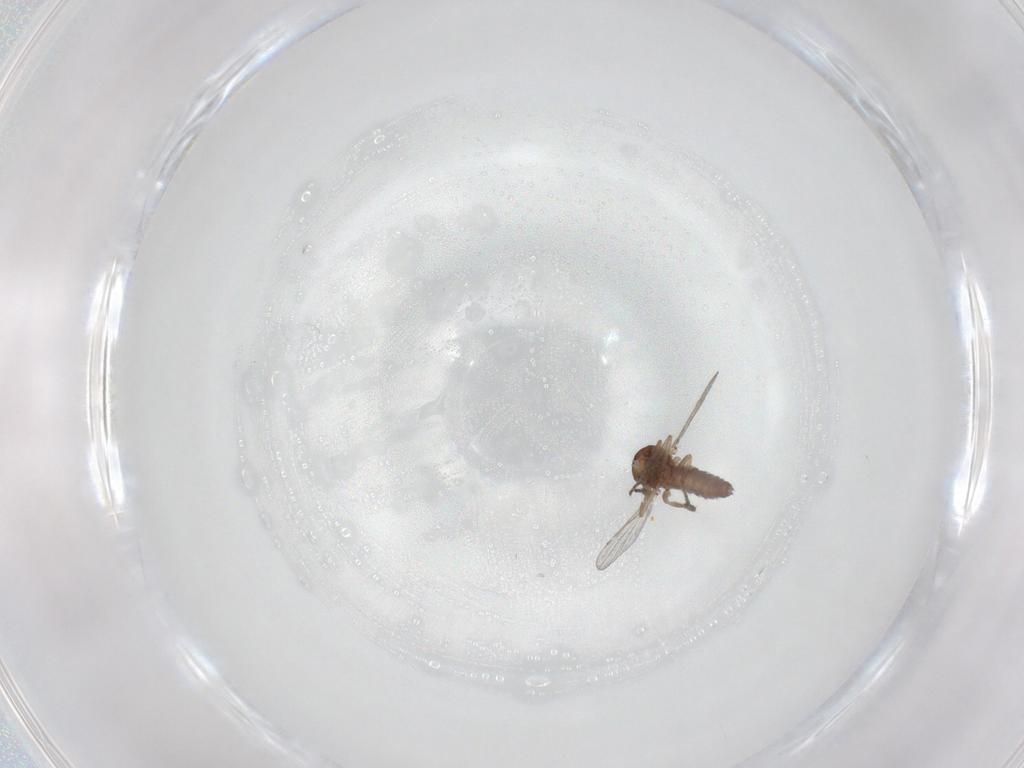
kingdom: Animalia
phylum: Arthropoda
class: Insecta
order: Diptera
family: Ceratopogonidae
